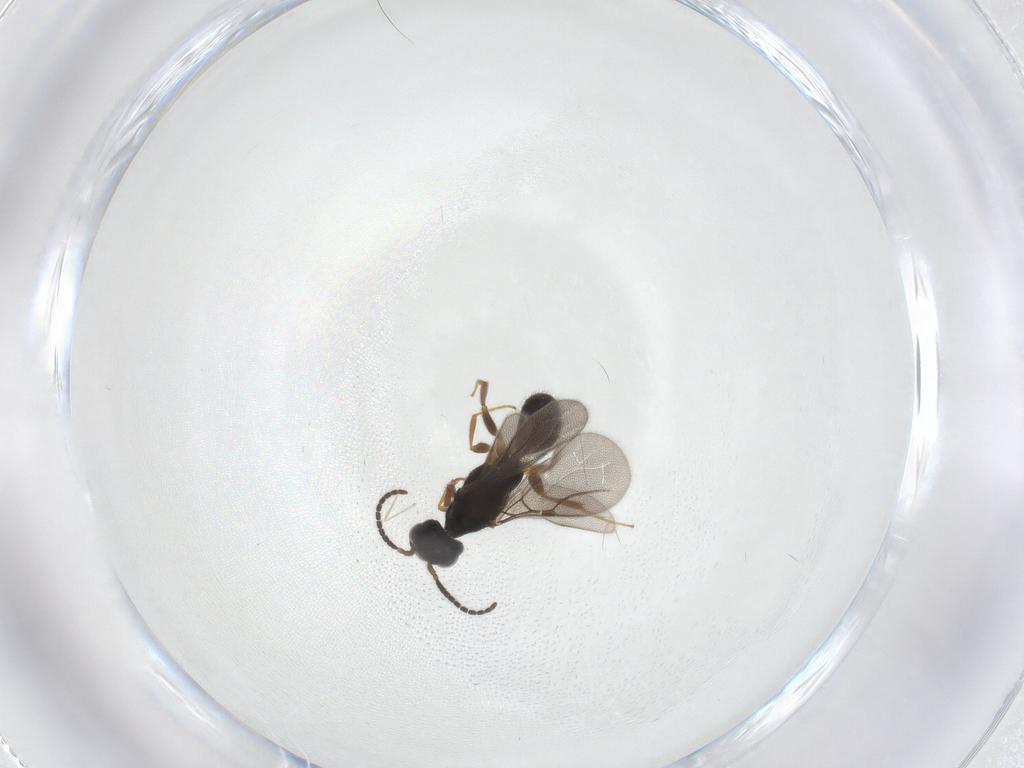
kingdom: Animalia
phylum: Arthropoda
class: Insecta
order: Hymenoptera
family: Bethylidae
